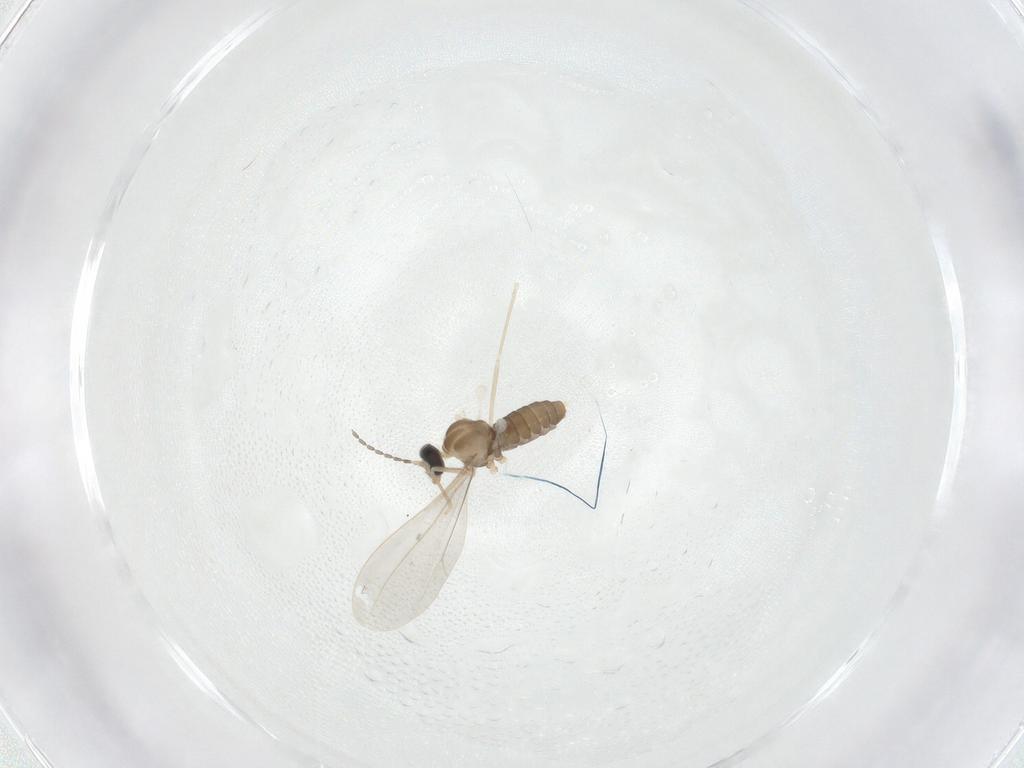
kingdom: Animalia
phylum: Arthropoda
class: Insecta
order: Diptera
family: Cecidomyiidae
